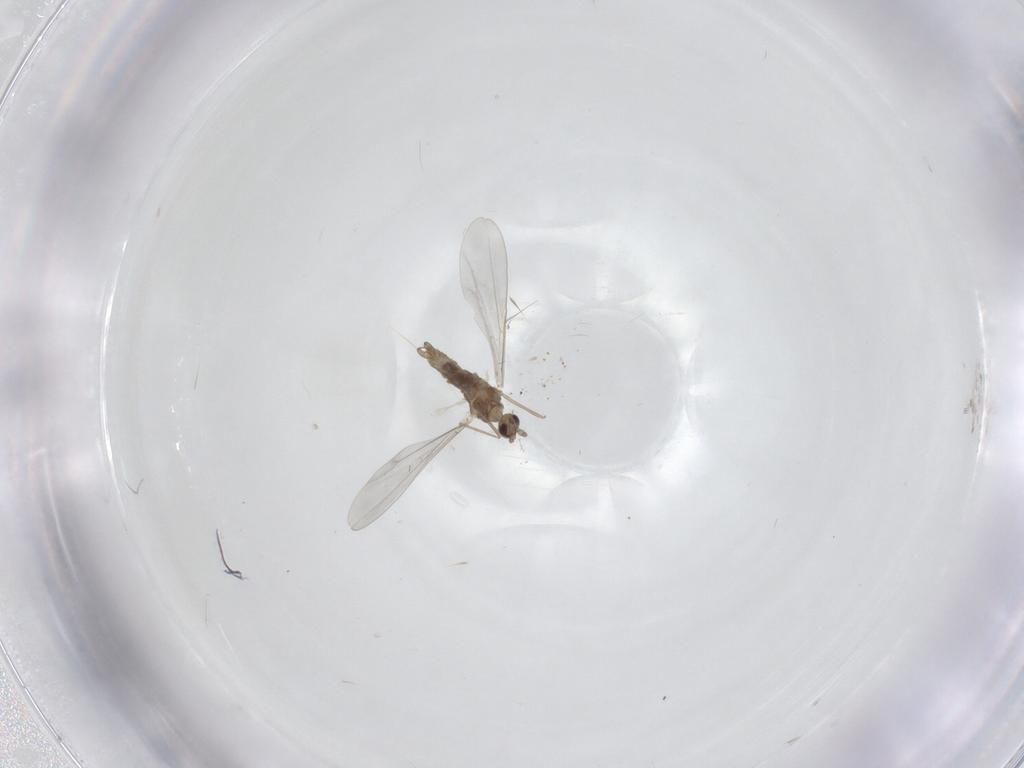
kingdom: Animalia
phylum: Arthropoda
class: Insecta
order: Diptera
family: Cecidomyiidae
